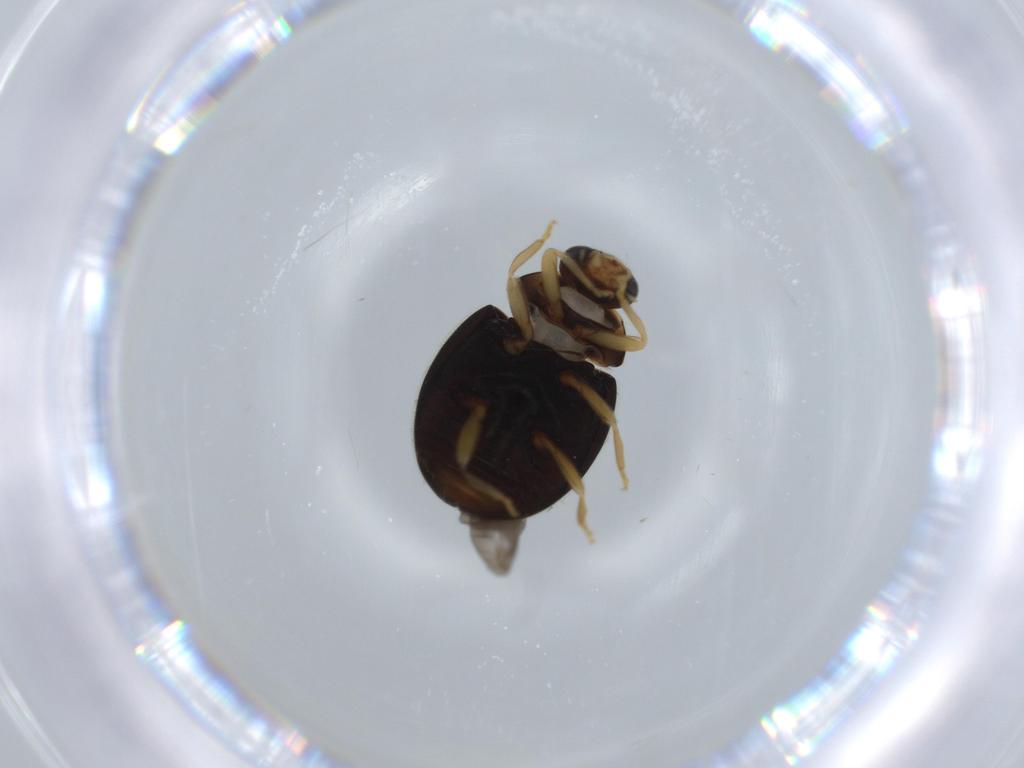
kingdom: Animalia
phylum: Arthropoda
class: Insecta
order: Coleoptera
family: Coccinellidae
